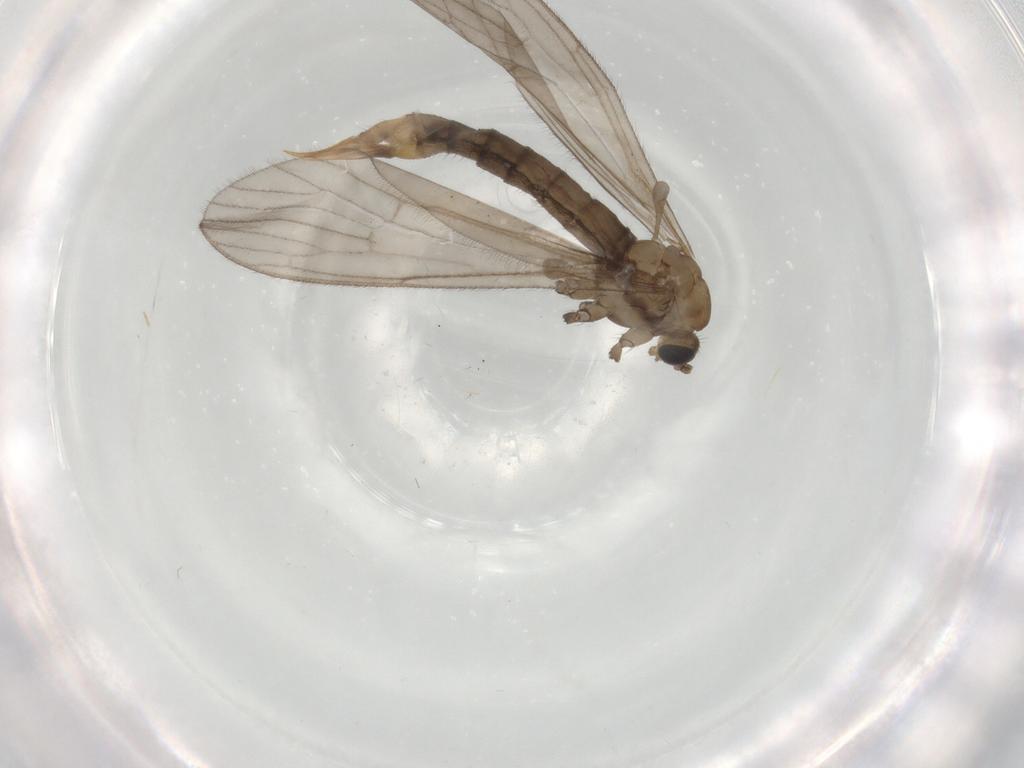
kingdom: Animalia
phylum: Arthropoda
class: Insecta
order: Diptera
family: Limoniidae
